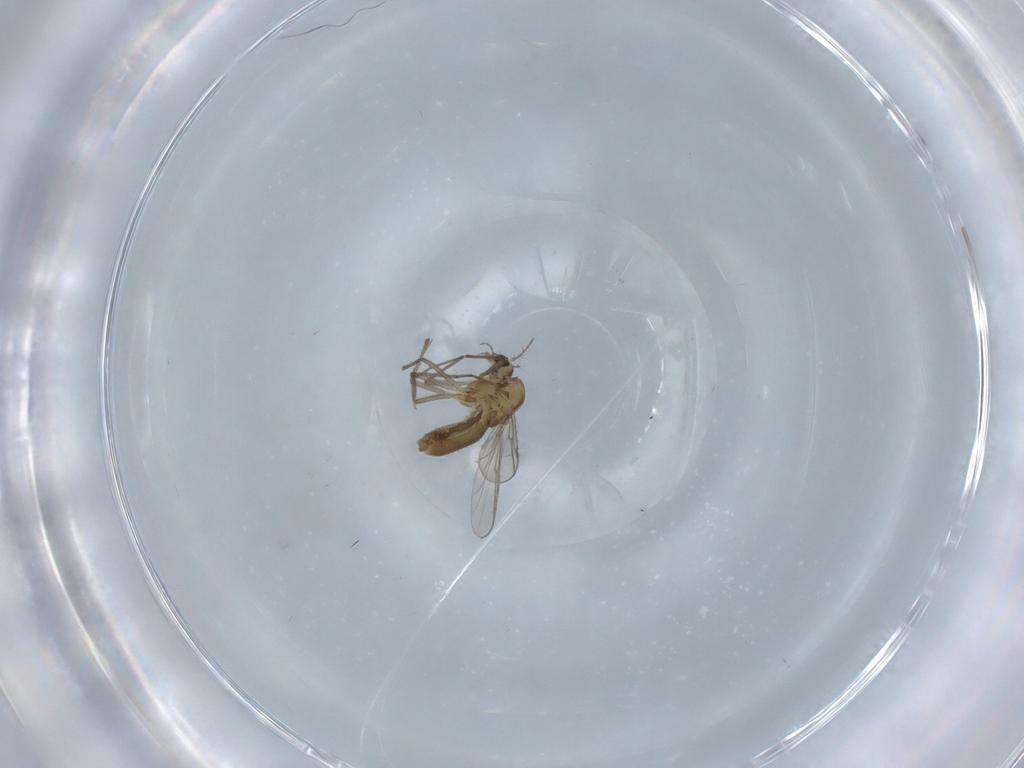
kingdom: Animalia
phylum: Arthropoda
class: Insecta
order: Diptera
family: Chironomidae
